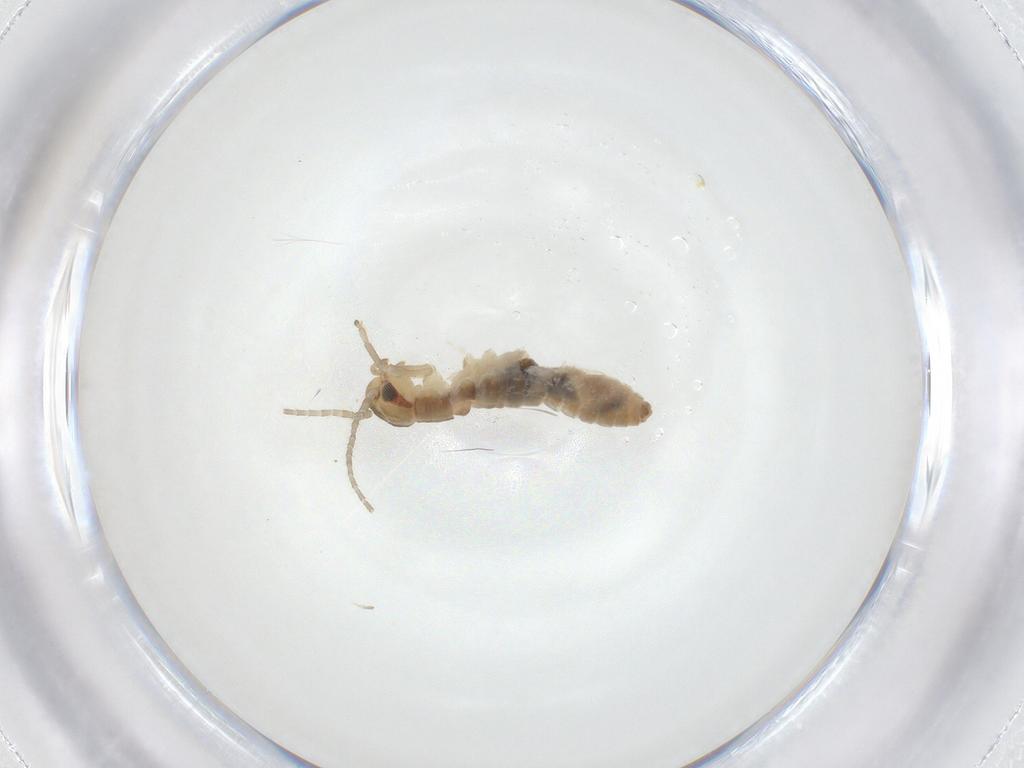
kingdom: Animalia
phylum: Arthropoda
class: Insecta
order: Orthoptera
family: Gryllidae
